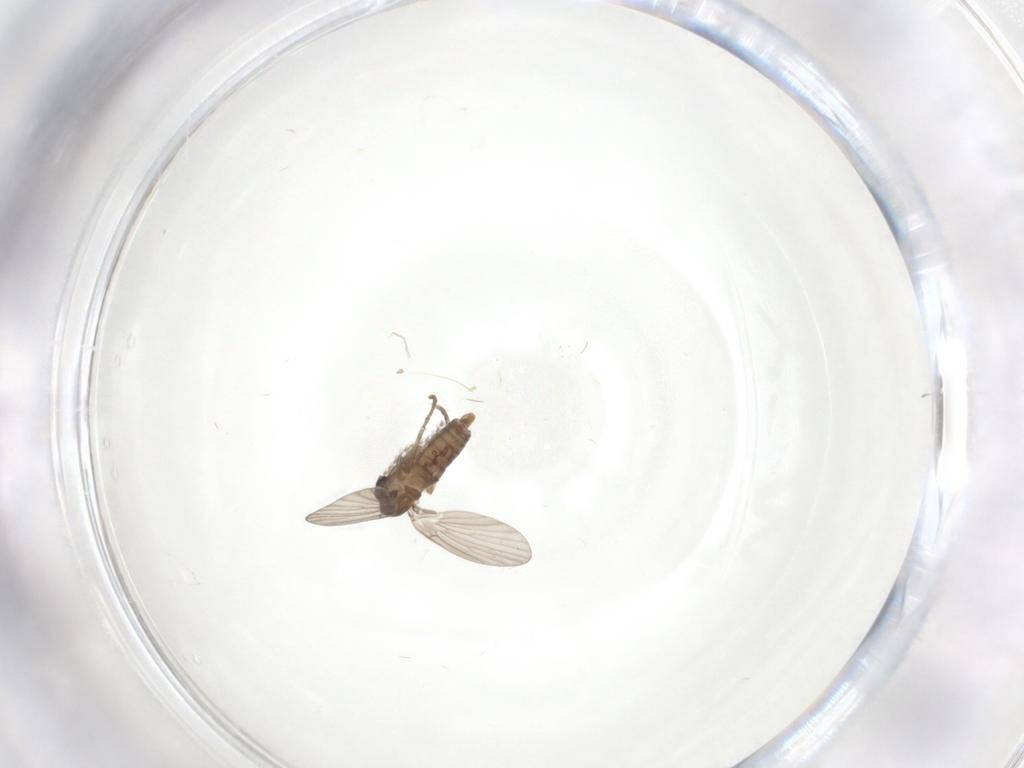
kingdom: Animalia
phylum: Arthropoda
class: Insecta
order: Diptera
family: Psychodidae
